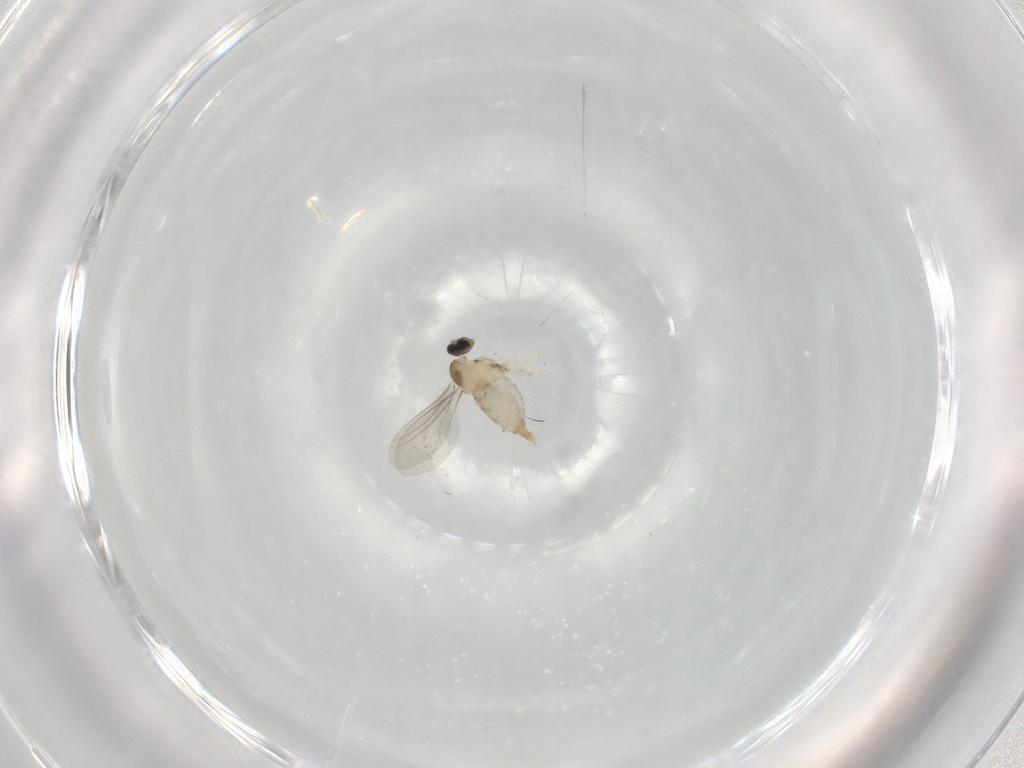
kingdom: Animalia
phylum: Arthropoda
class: Insecta
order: Diptera
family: Cecidomyiidae
